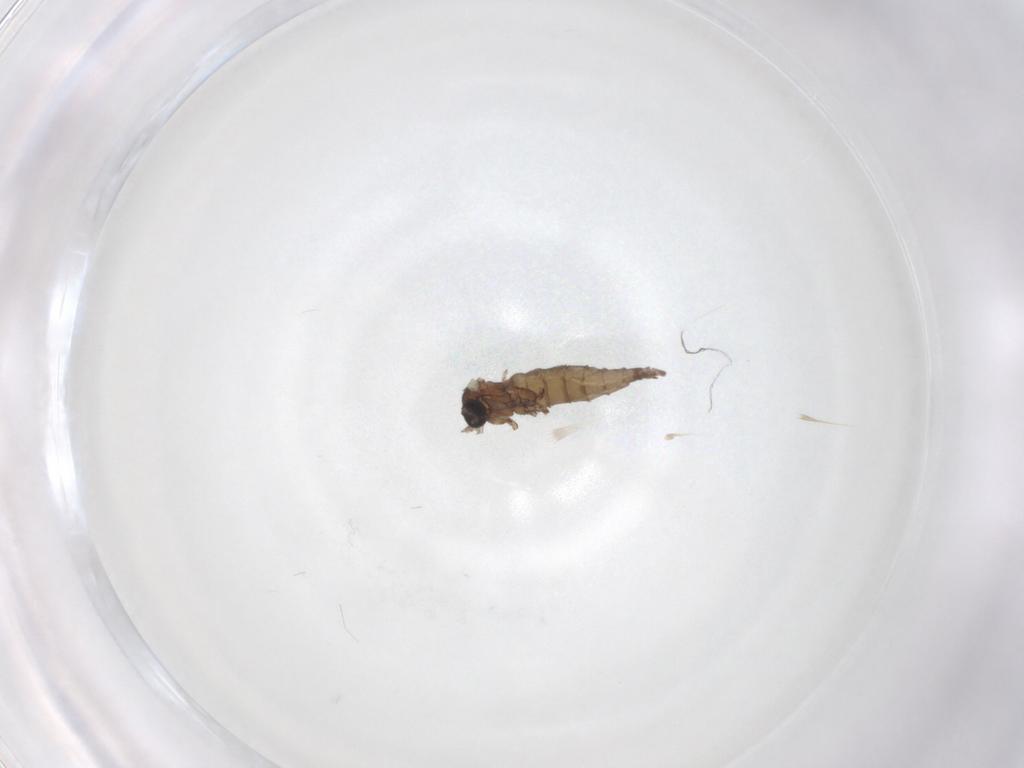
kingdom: Animalia
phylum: Arthropoda
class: Insecta
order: Diptera
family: Sciaridae
